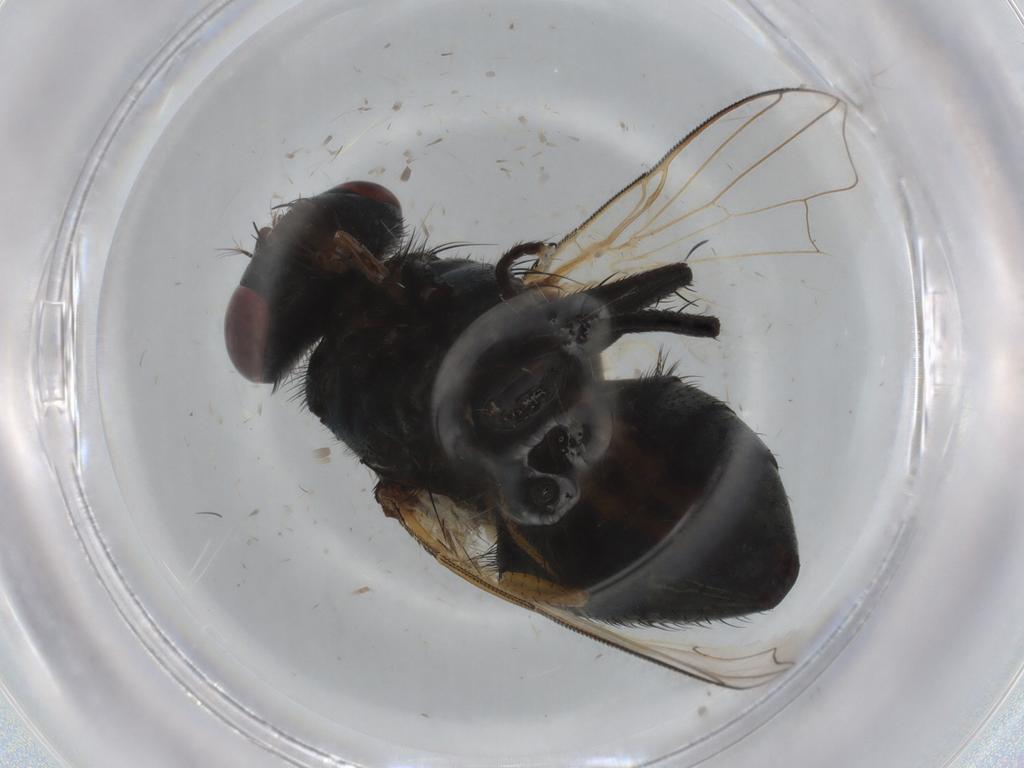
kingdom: Animalia
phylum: Arthropoda
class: Insecta
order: Diptera
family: Muscidae
